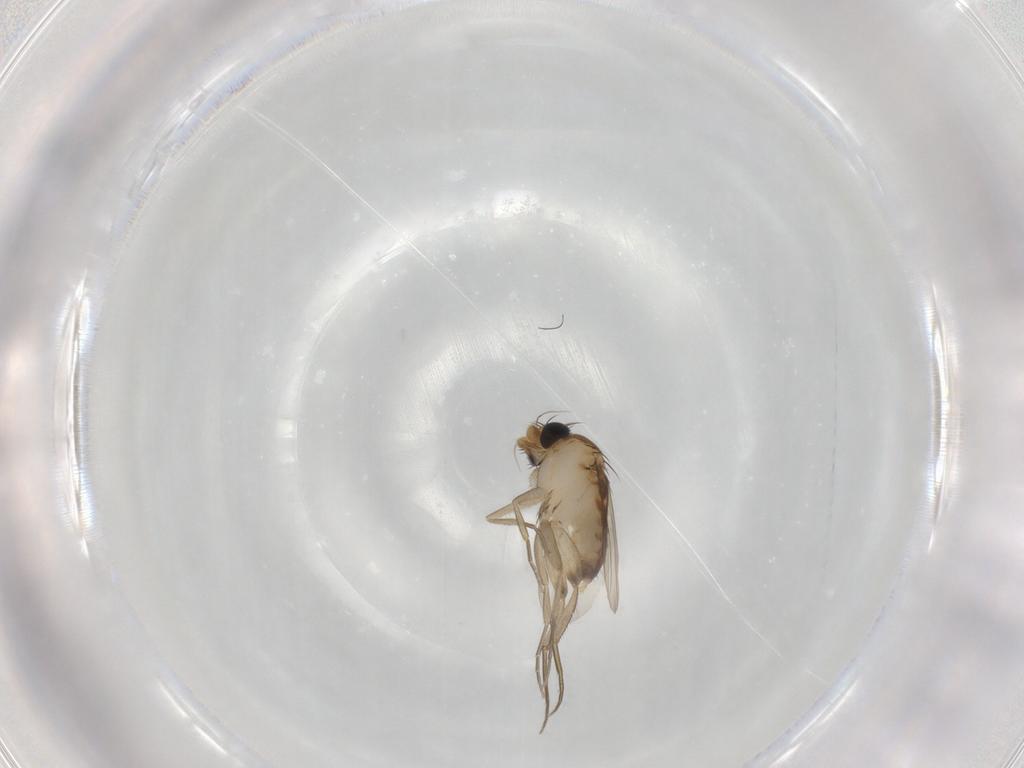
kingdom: Animalia
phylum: Arthropoda
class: Insecta
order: Diptera
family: Phoridae
